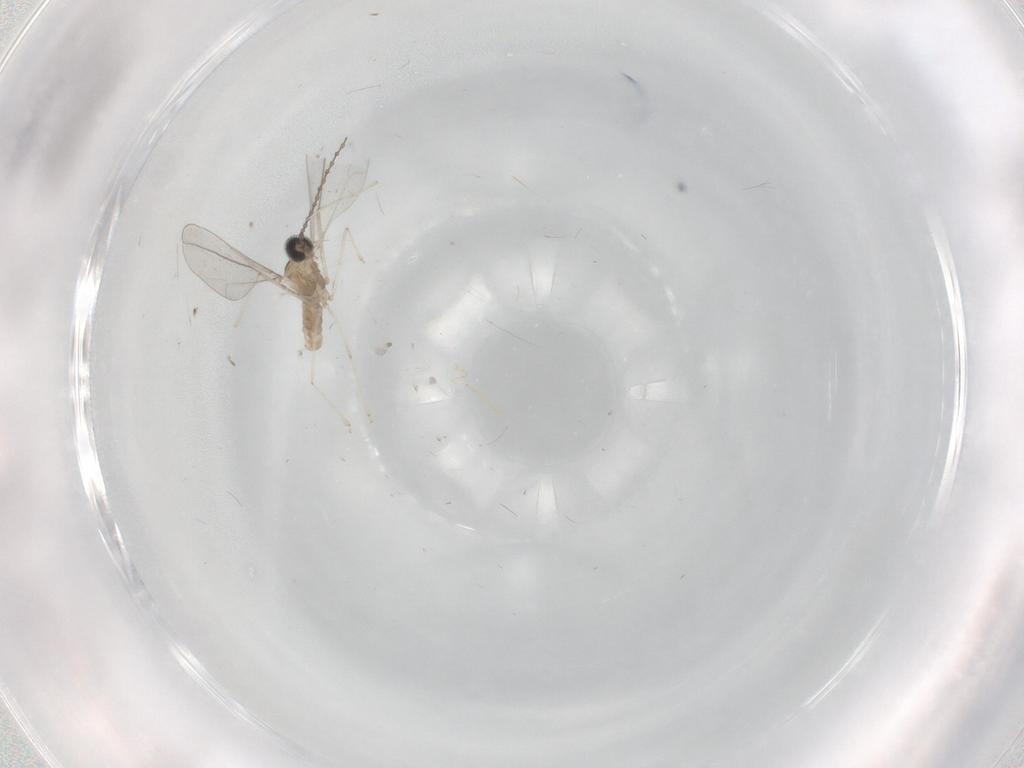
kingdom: Animalia
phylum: Arthropoda
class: Insecta
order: Diptera
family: Cecidomyiidae
